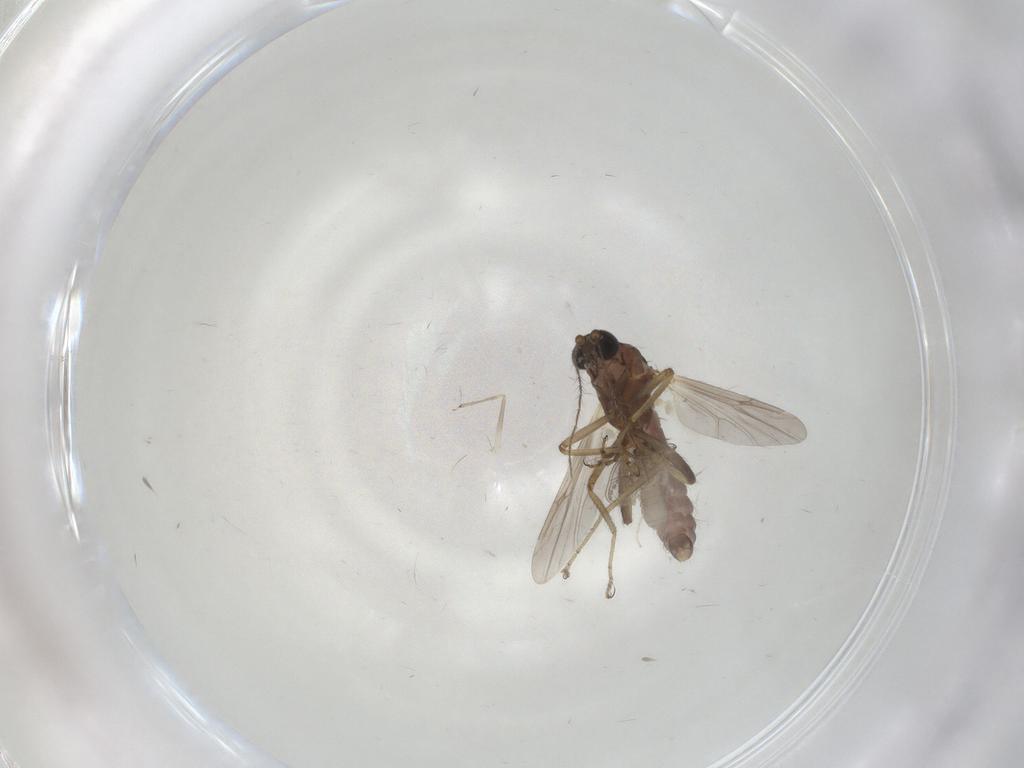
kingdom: Animalia
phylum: Arthropoda
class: Insecta
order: Diptera
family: Ceratopogonidae
